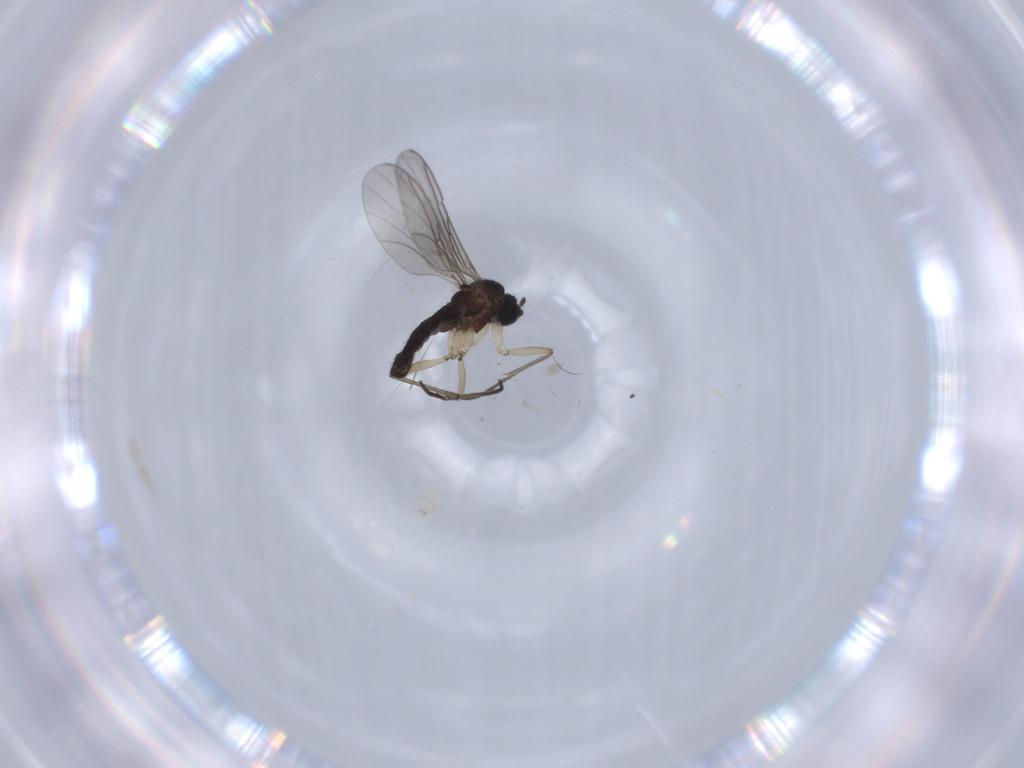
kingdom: Animalia
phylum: Arthropoda
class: Insecta
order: Diptera
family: Sciaridae
